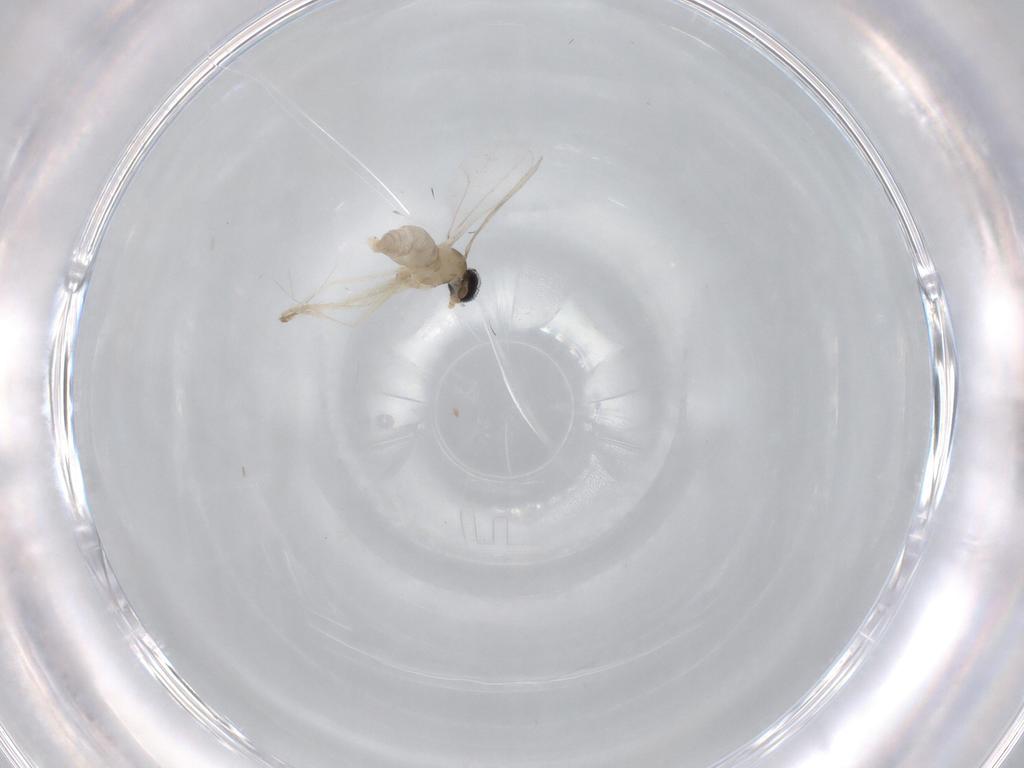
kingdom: Animalia
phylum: Arthropoda
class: Insecta
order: Diptera
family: Cecidomyiidae
